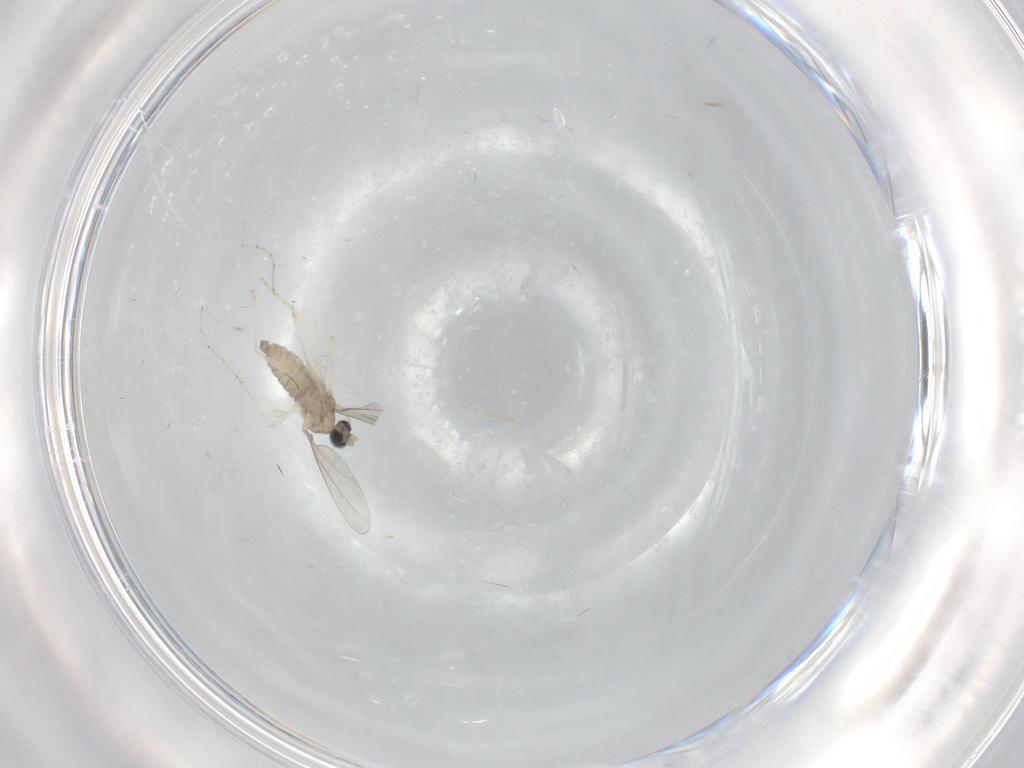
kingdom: Animalia
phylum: Arthropoda
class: Insecta
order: Diptera
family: Cecidomyiidae
